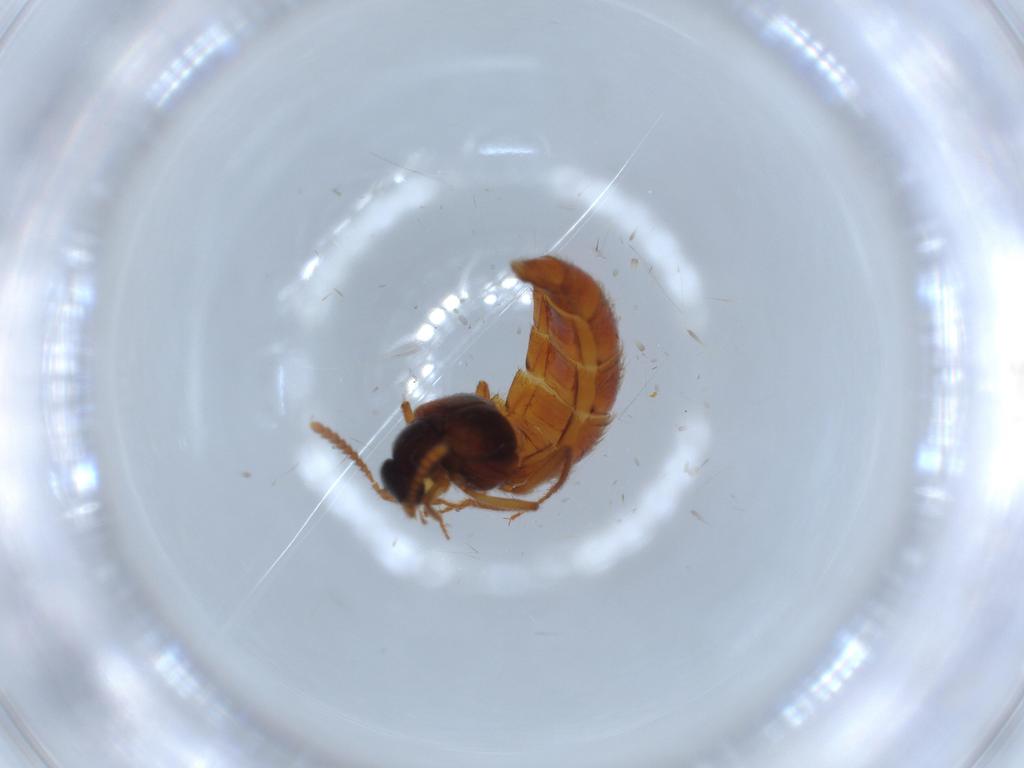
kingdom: Animalia
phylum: Arthropoda
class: Insecta
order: Coleoptera
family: Staphylinidae
